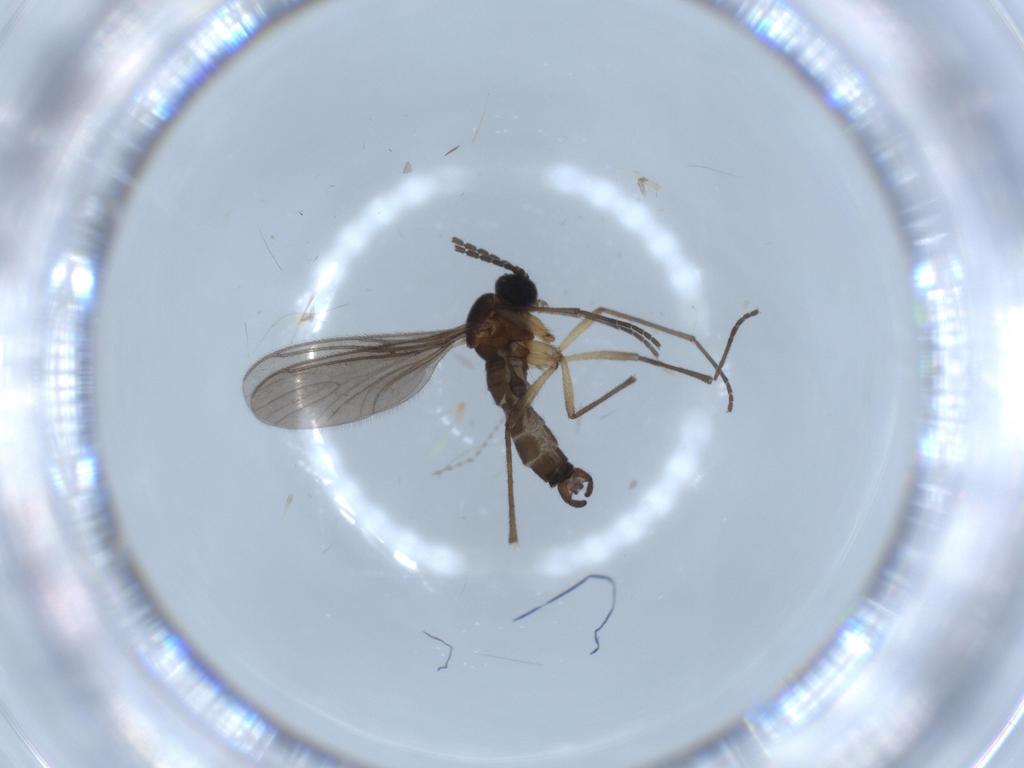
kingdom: Animalia
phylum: Arthropoda
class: Insecta
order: Diptera
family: Cecidomyiidae
